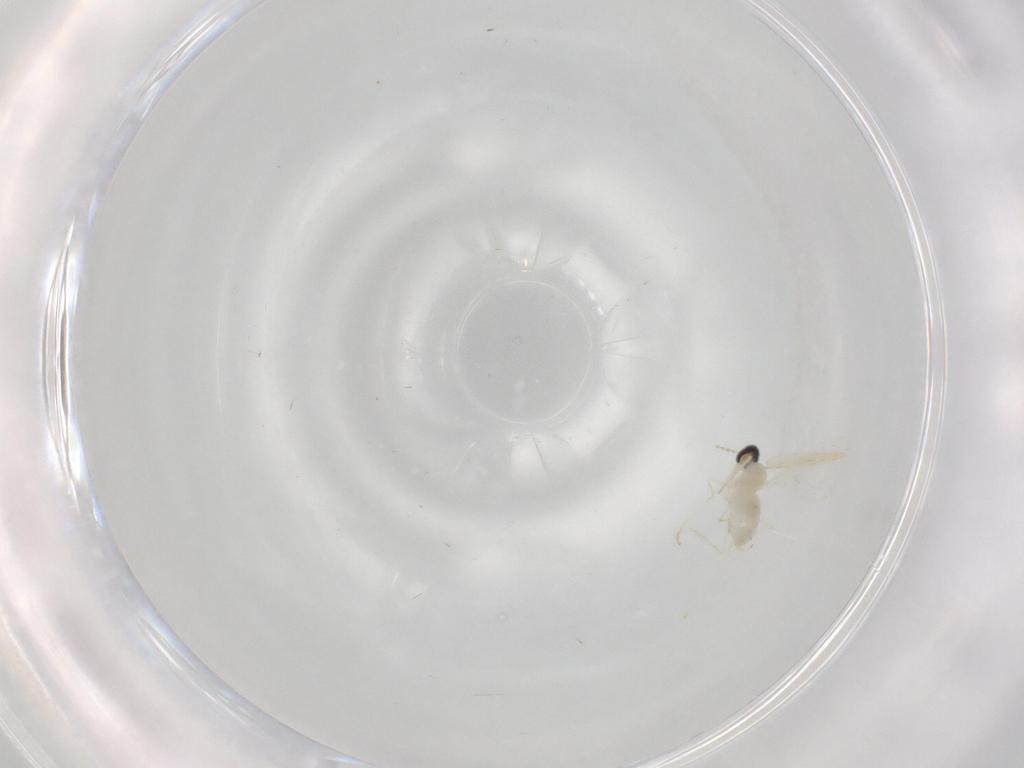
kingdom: Animalia
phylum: Arthropoda
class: Insecta
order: Diptera
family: Cecidomyiidae
